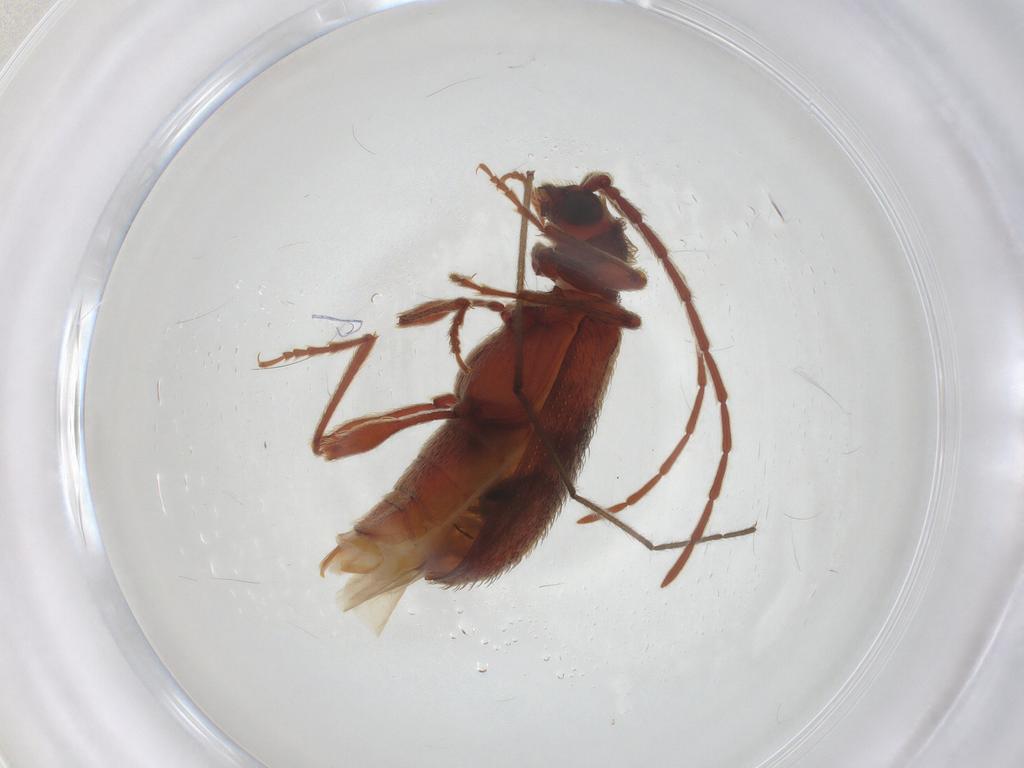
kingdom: Animalia
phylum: Arthropoda
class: Insecta
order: Coleoptera
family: Ptinidae
